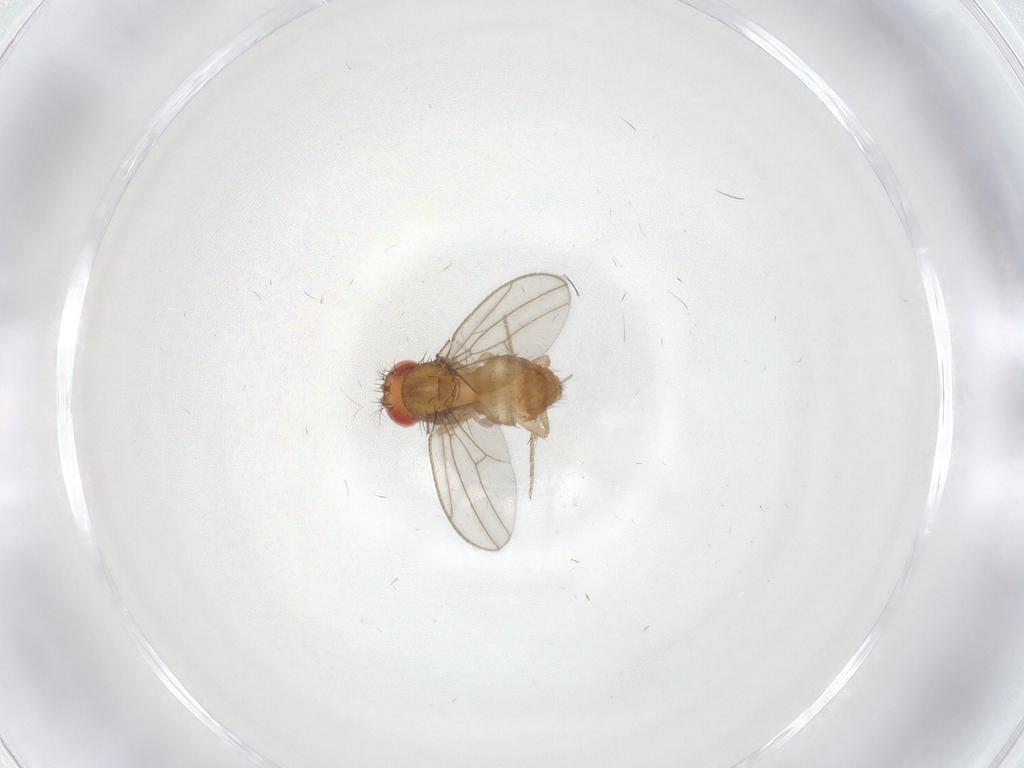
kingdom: Animalia
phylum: Arthropoda
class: Insecta
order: Diptera
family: Drosophilidae
